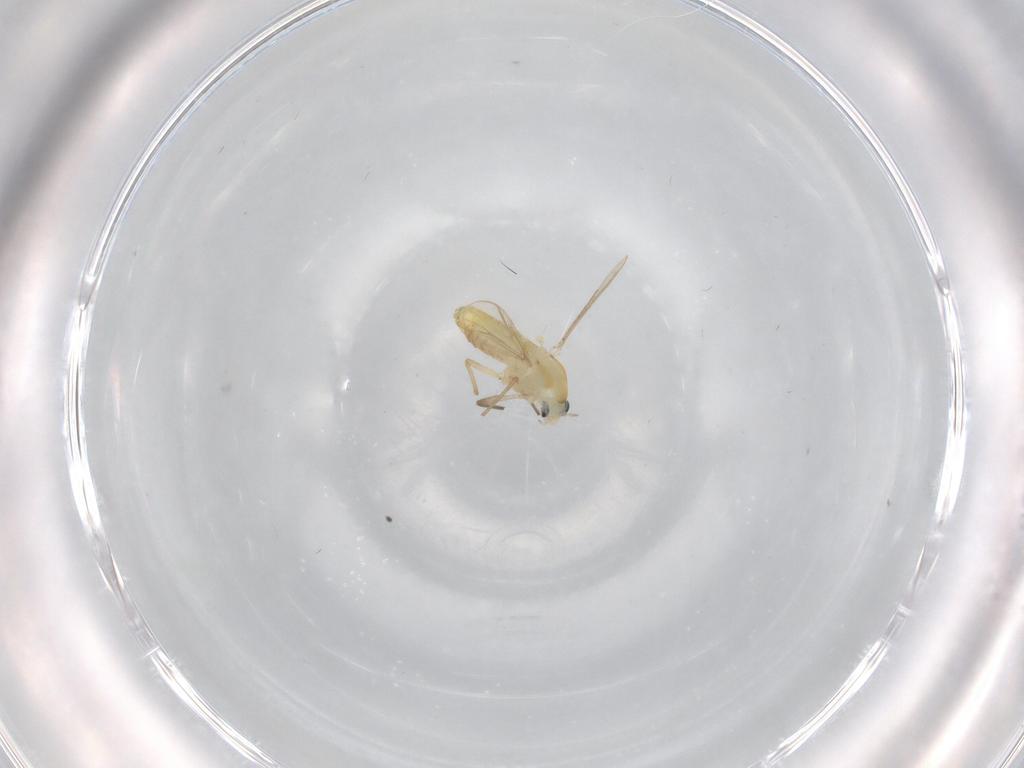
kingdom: Animalia
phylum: Arthropoda
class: Insecta
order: Diptera
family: Chironomidae
